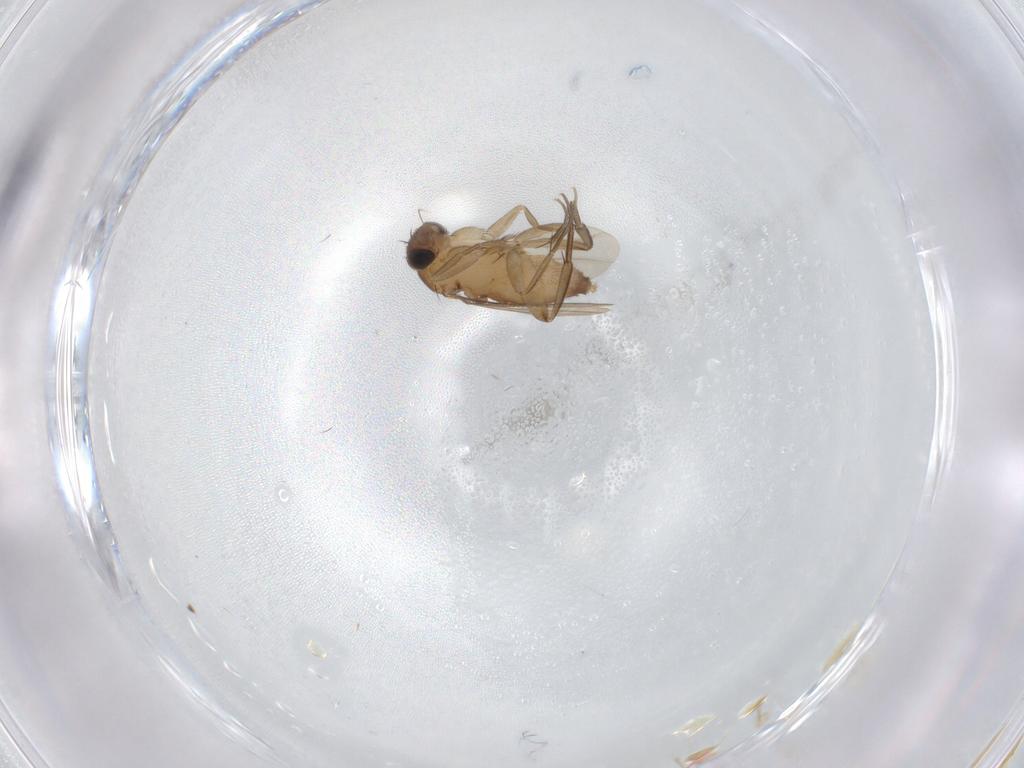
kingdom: Animalia
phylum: Arthropoda
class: Insecta
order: Diptera
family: Phoridae
